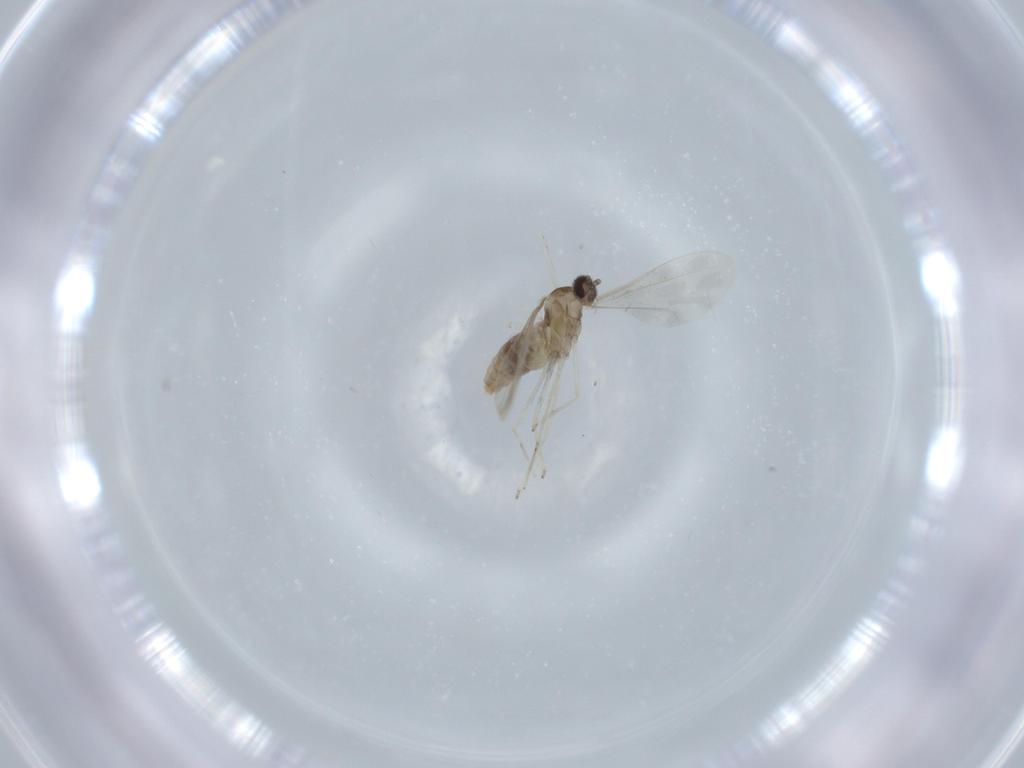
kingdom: Animalia
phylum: Arthropoda
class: Insecta
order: Diptera
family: Cecidomyiidae
